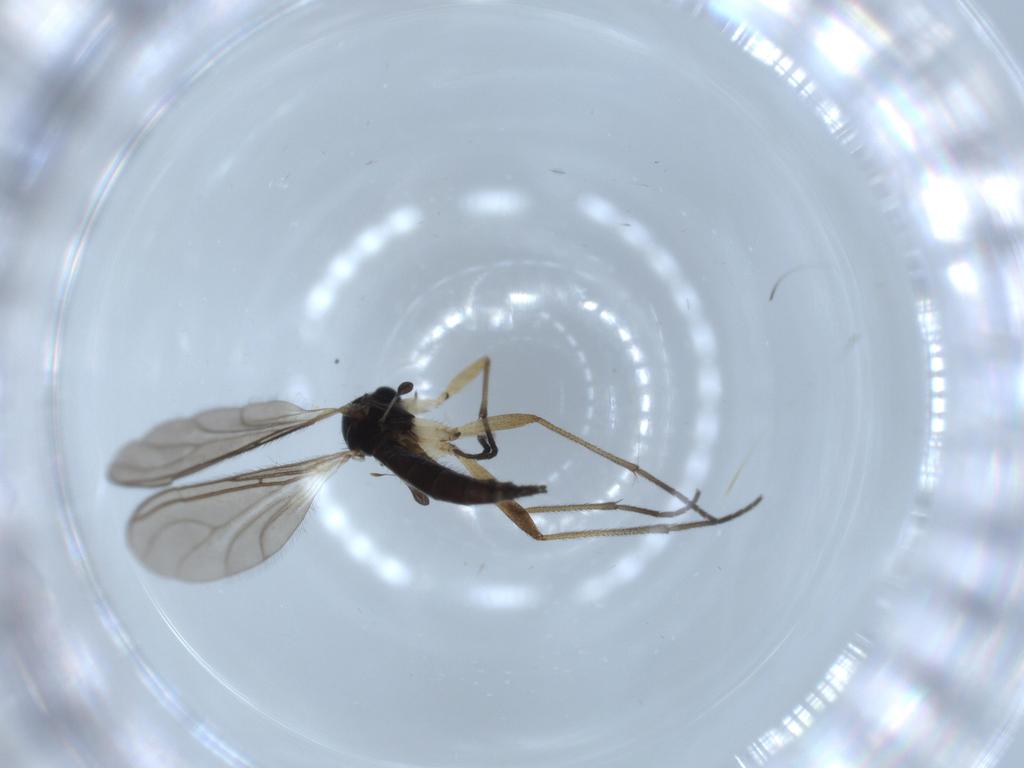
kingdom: Animalia
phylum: Arthropoda
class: Insecta
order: Diptera
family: Sciaridae
